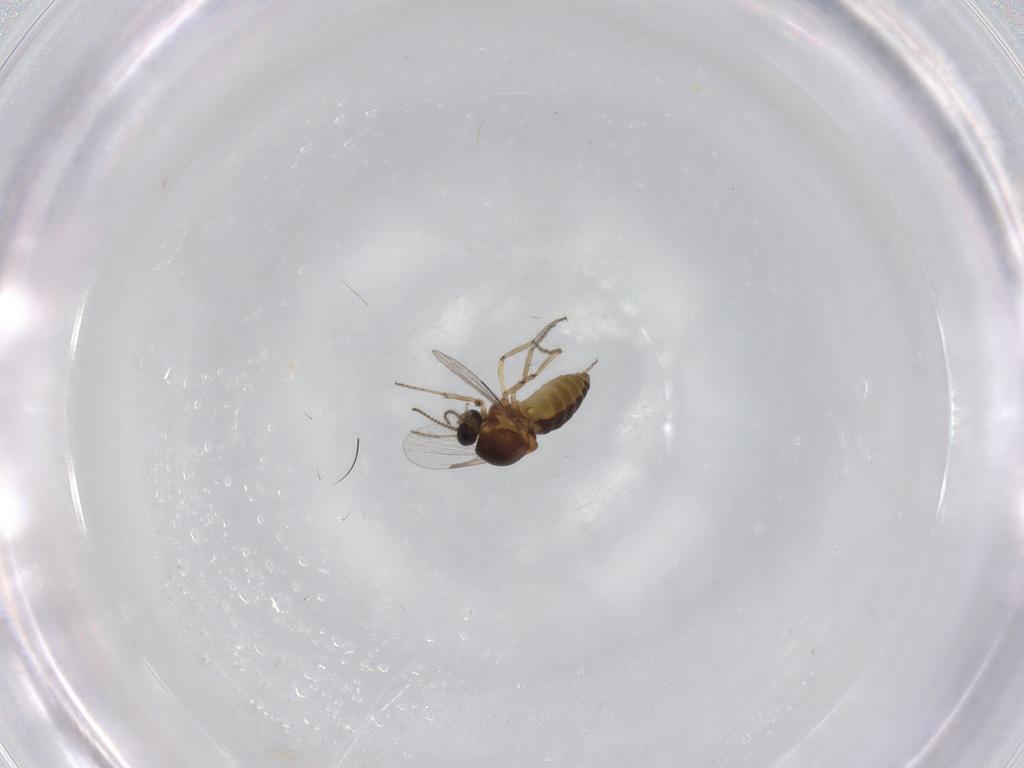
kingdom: Animalia
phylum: Arthropoda
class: Insecta
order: Diptera
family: Ceratopogonidae
